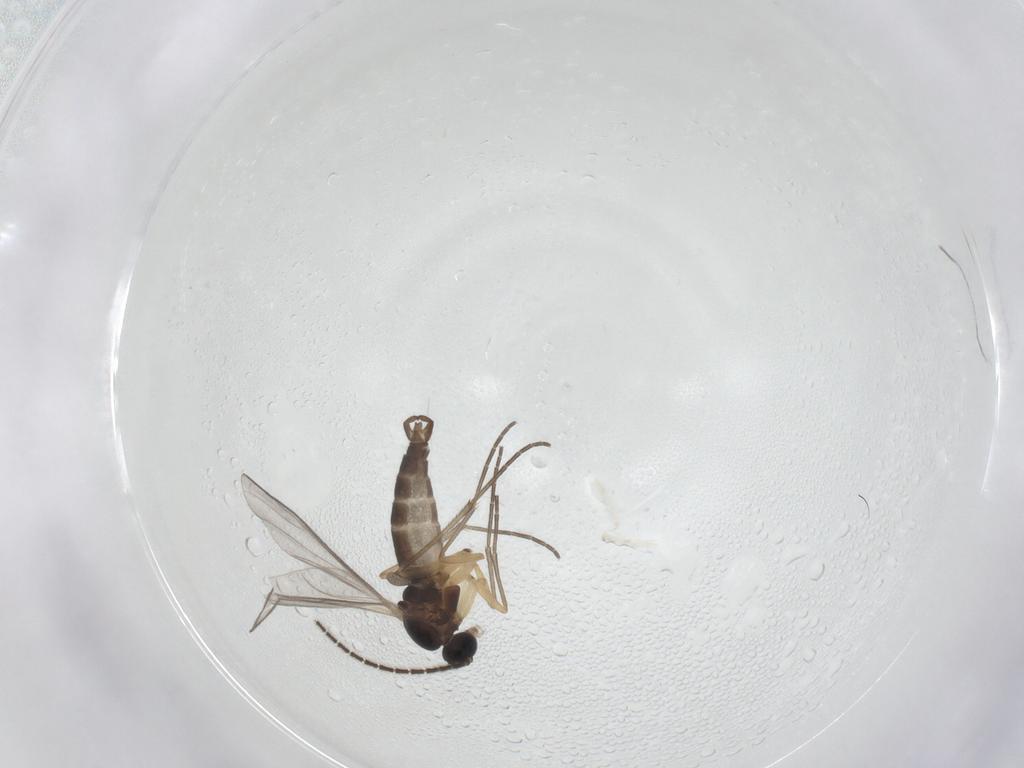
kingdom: Animalia
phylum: Arthropoda
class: Insecta
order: Diptera
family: Sciaridae
